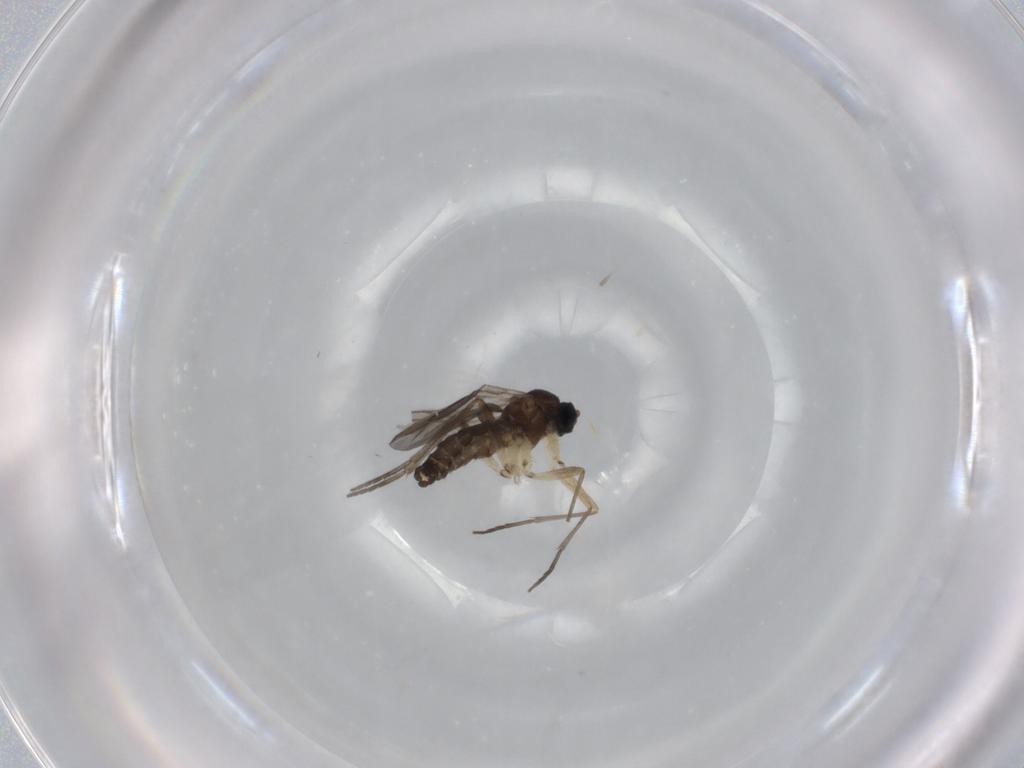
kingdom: Animalia
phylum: Arthropoda
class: Insecta
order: Diptera
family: Sciaridae
